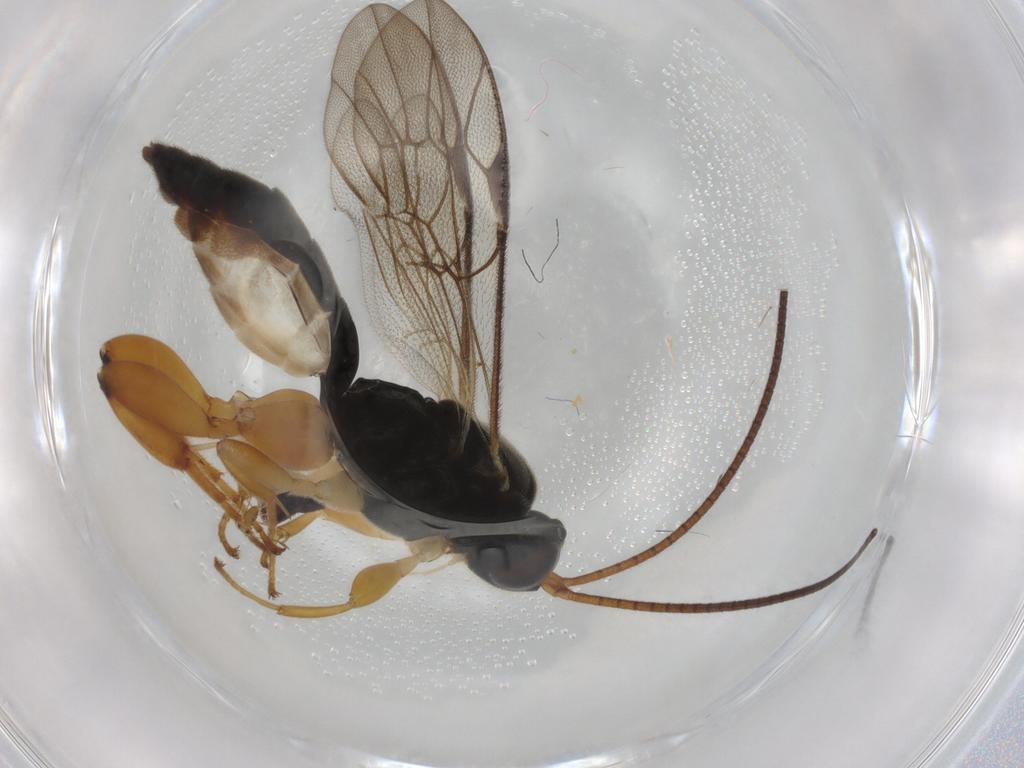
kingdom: Animalia
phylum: Arthropoda
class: Insecta
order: Hymenoptera
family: Ichneumonidae
